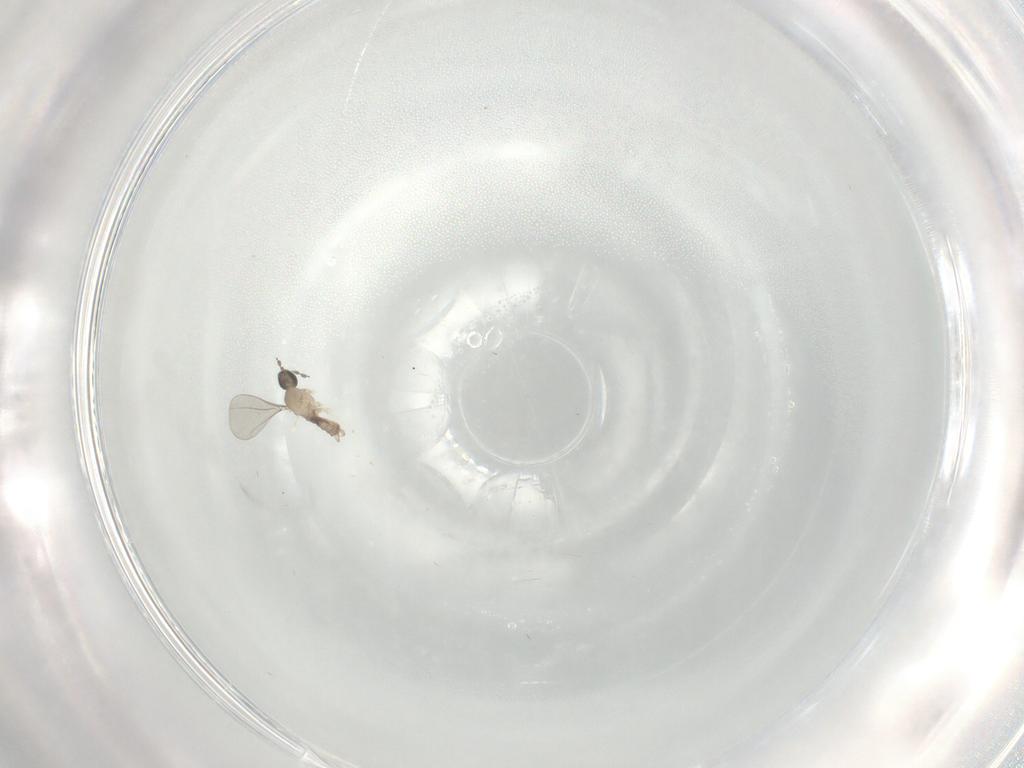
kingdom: Animalia
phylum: Arthropoda
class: Insecta
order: Diptera
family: Cecidomyiidae
